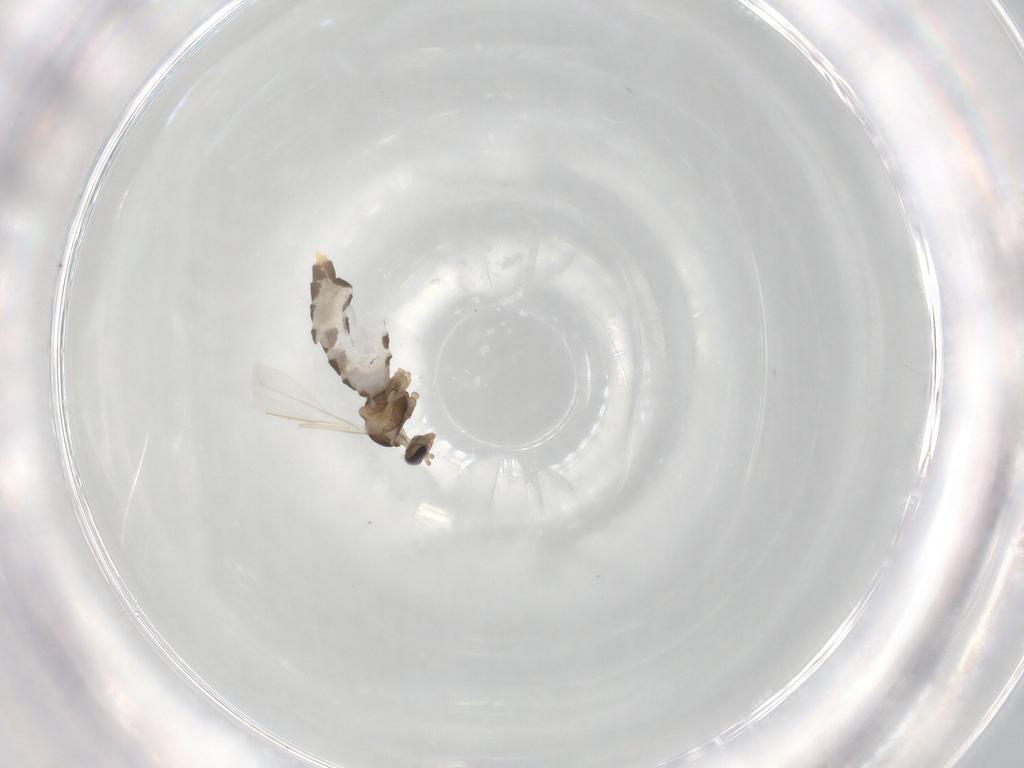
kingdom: Animalia
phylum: Arthropoda
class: Insecta
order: Diptera
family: Cecidomyiidae
